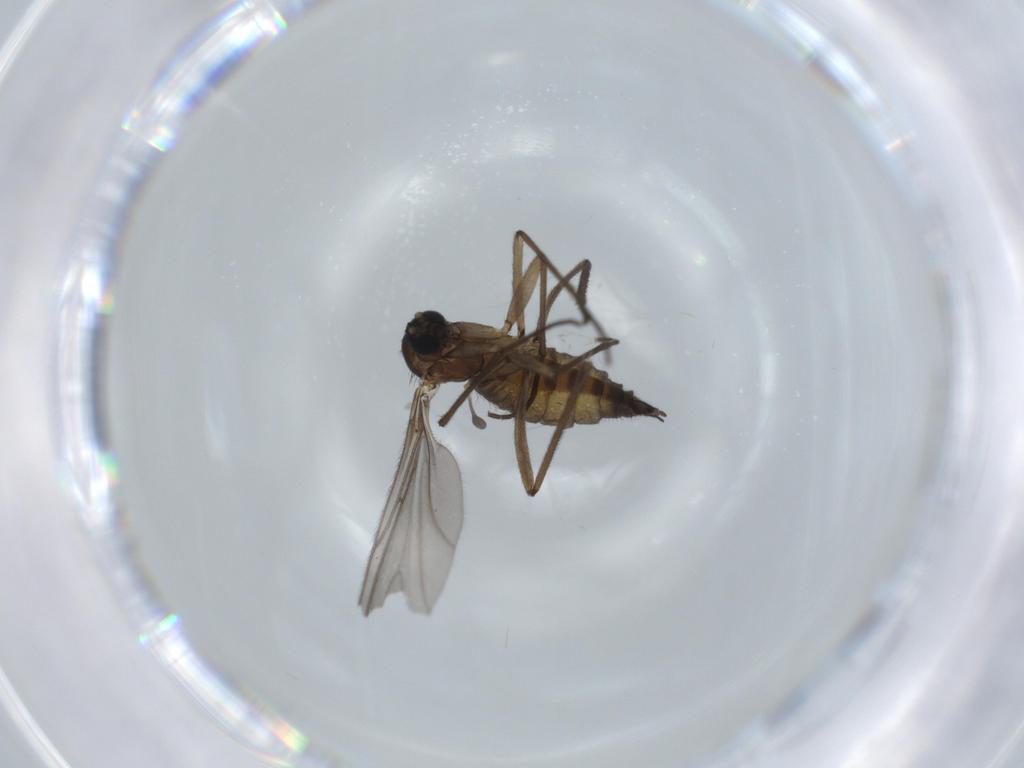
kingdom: Animalia
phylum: Arthropoda
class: Insecta
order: Diptera
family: Sciaridae
